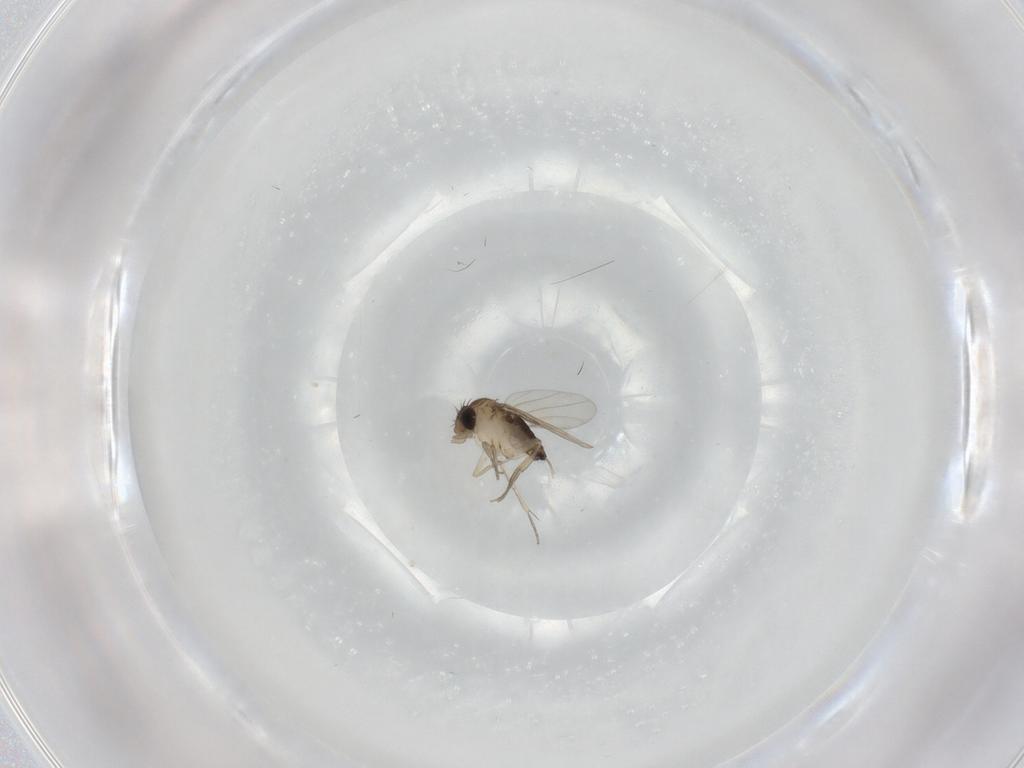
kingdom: Animalia
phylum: Arthropoda
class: Insecta
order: Diptera
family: Phoridae
